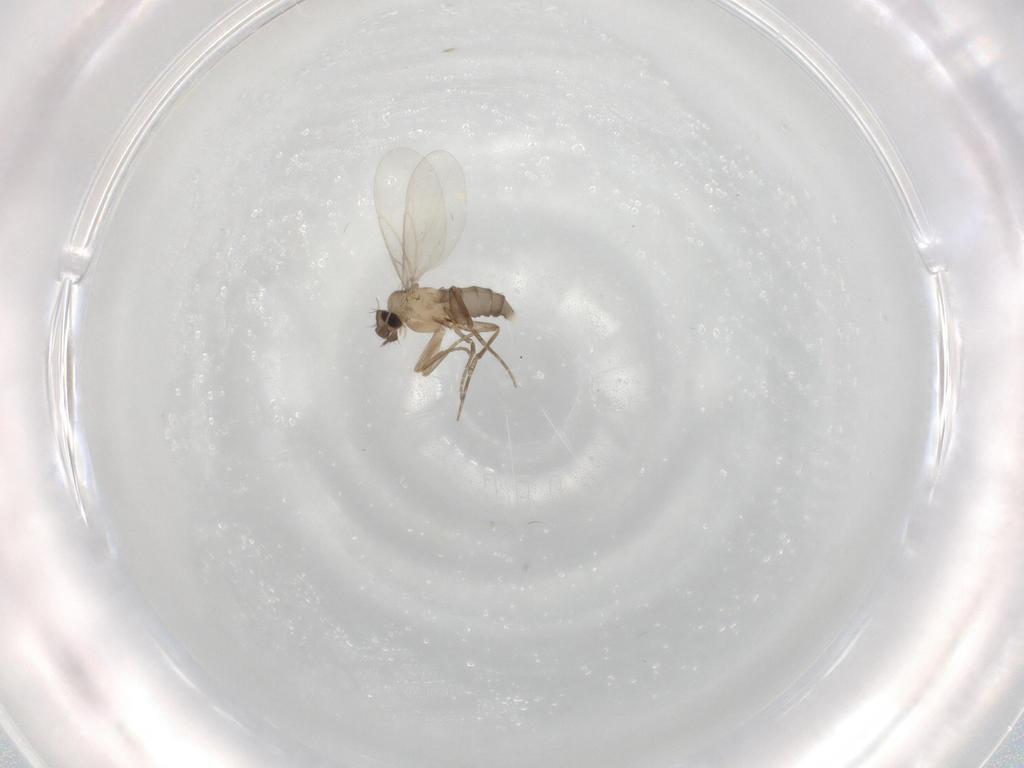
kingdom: Animalia
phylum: Arthropoda
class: Insecta
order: Diptera
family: Phoridae
